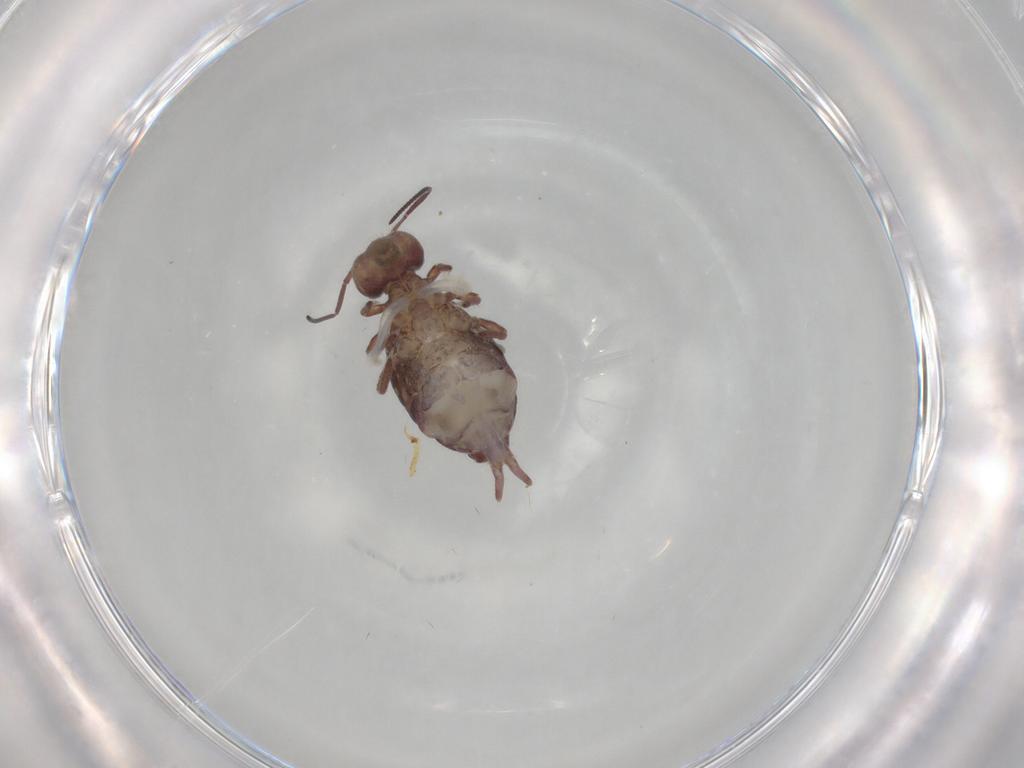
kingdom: Animalia
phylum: Arthropoda
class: Collembola
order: Symphypleona
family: Sminthuridae
